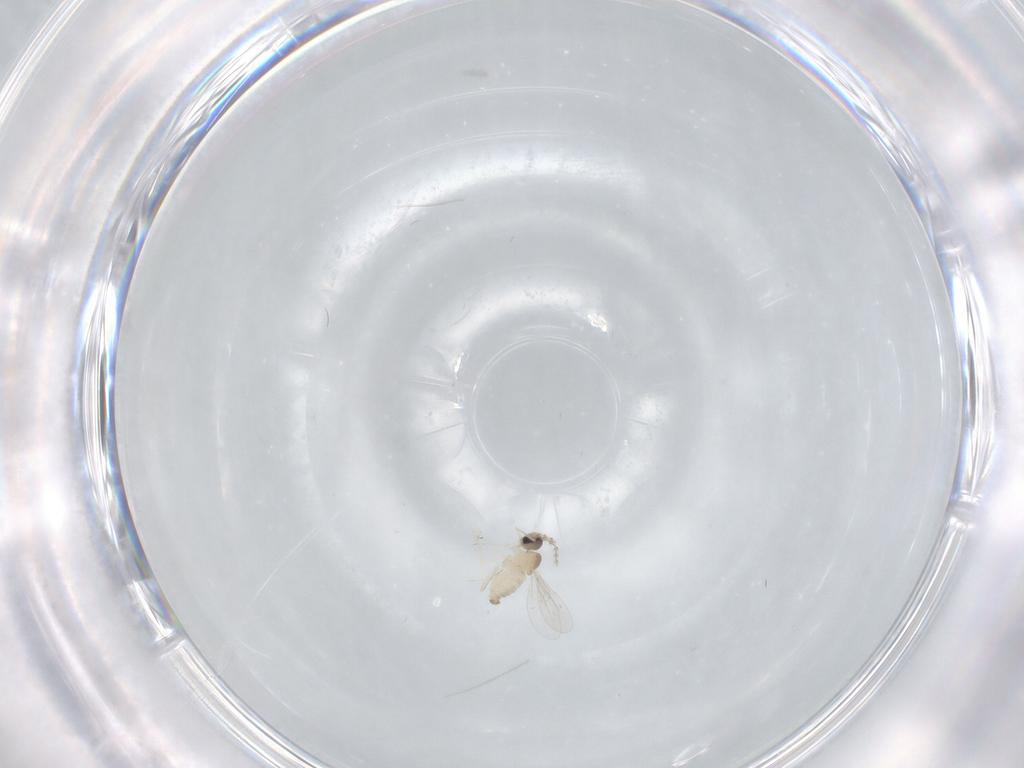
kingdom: Animalia
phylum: Arthropoda
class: Insecta
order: Diptera
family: Cecidomyiidae
